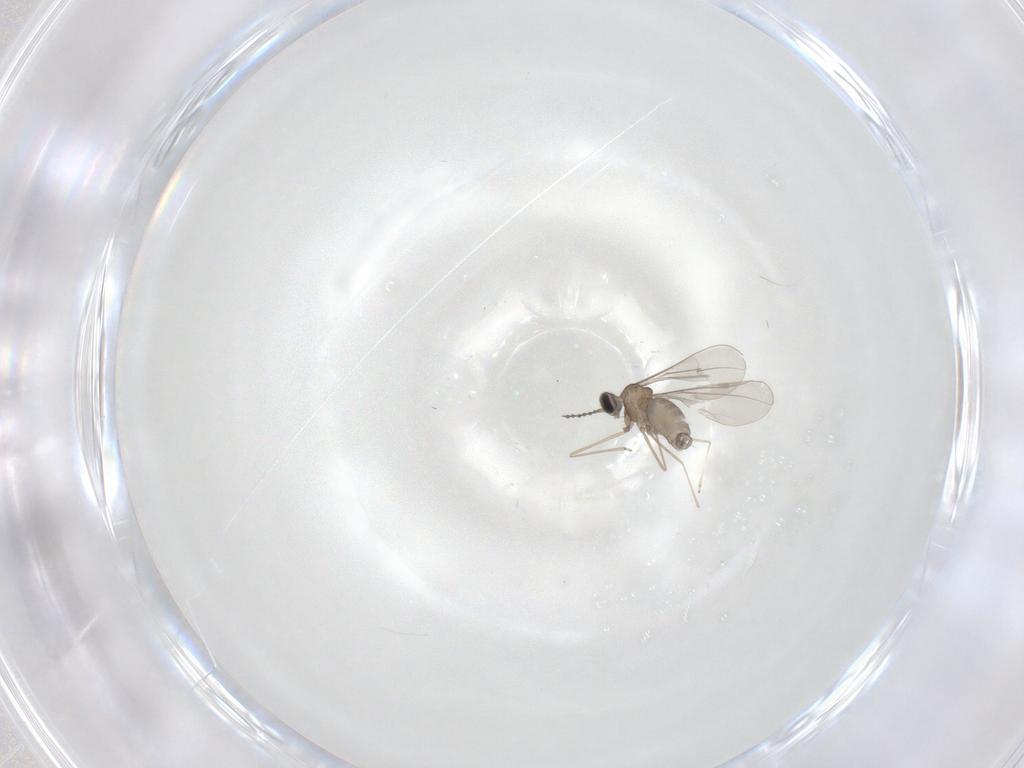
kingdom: Animalia
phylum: Arthropoda
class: Insecta
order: Diptera
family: Cecidomyiidae
